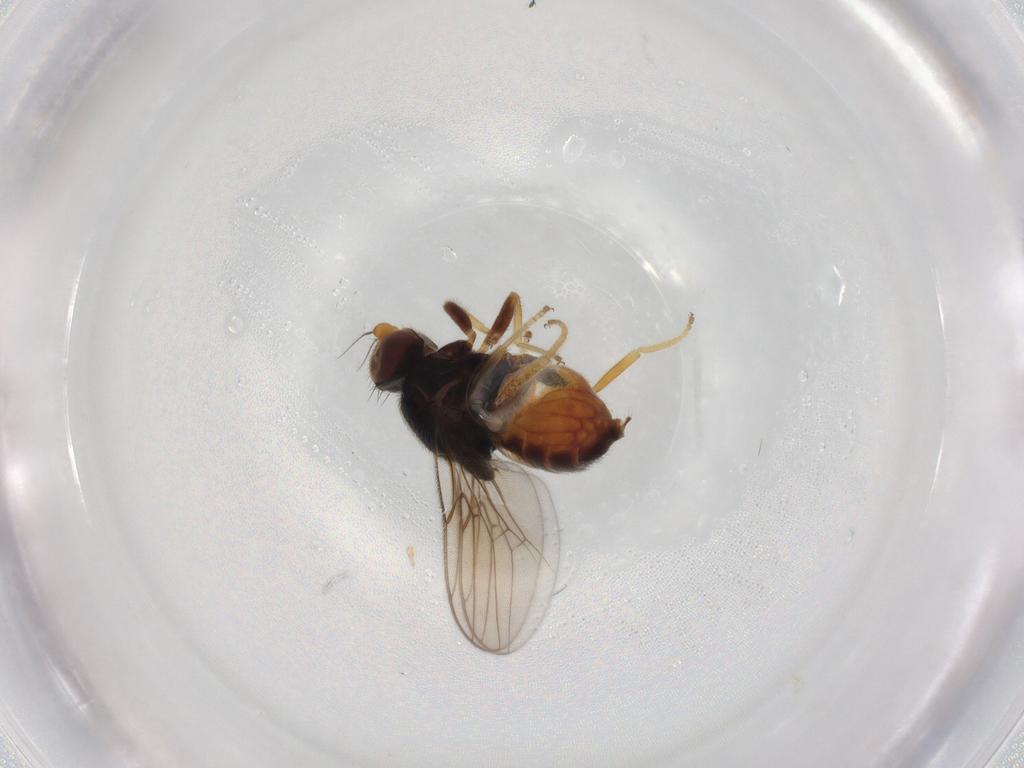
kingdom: Animalia
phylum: Arthropoda
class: Insecta
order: Diptera
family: Chloropidae
